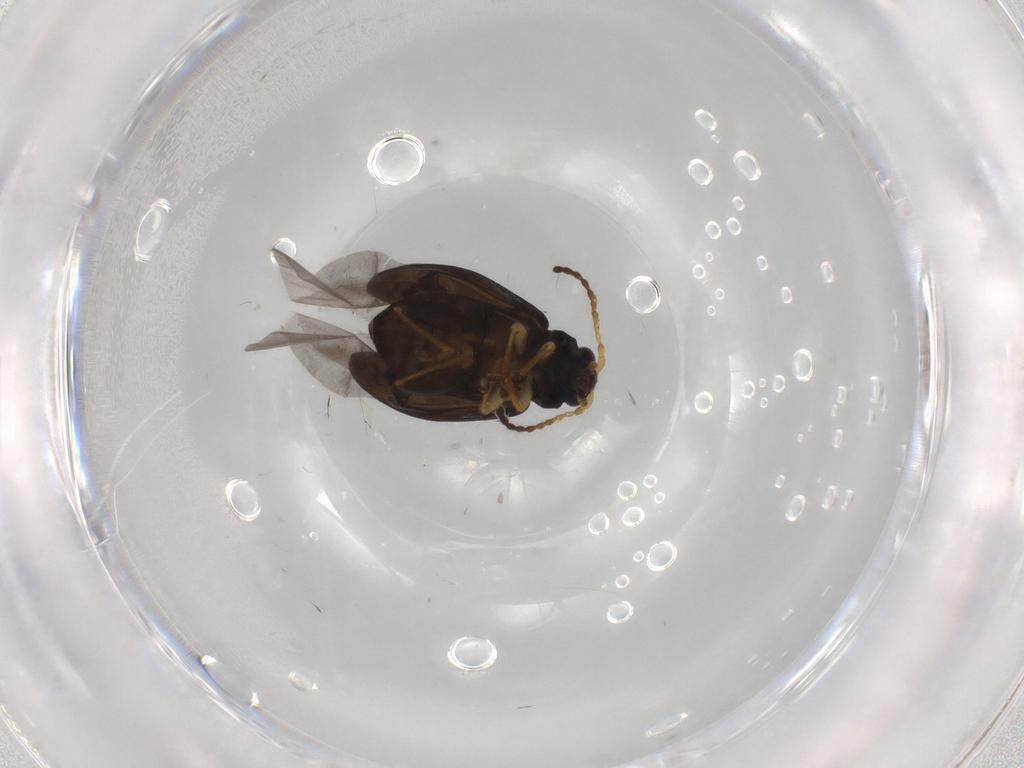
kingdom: Animalia
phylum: Arthropoda
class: Insecta
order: Coleoptera
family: Chrysomelidae
